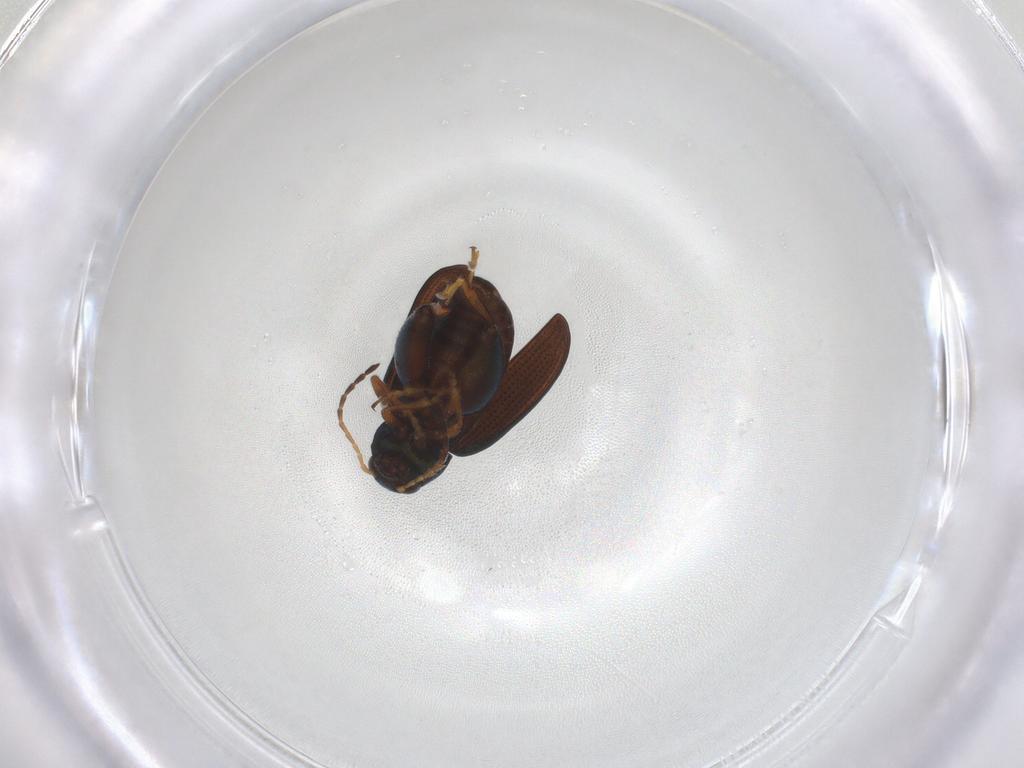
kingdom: Animalia
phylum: Arthropoda
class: Insecta
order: Coleoptera
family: Chrysomelidae
